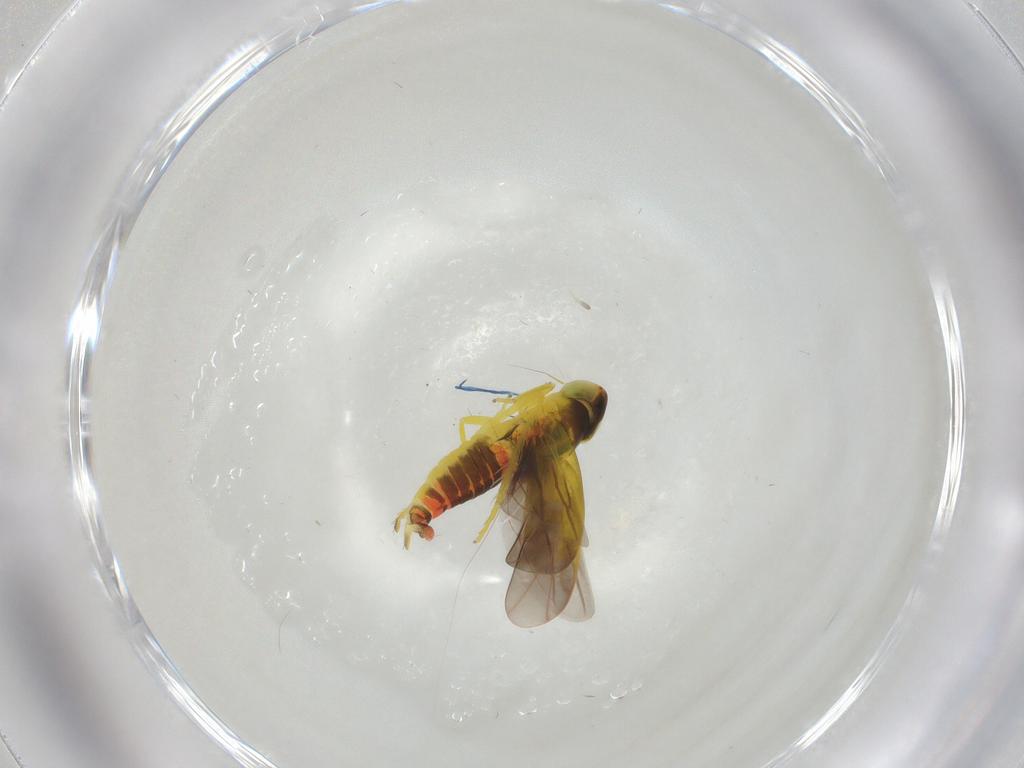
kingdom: Animalia
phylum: Arthropoda
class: Insecta
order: Hemiptera
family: Cicadellidae
